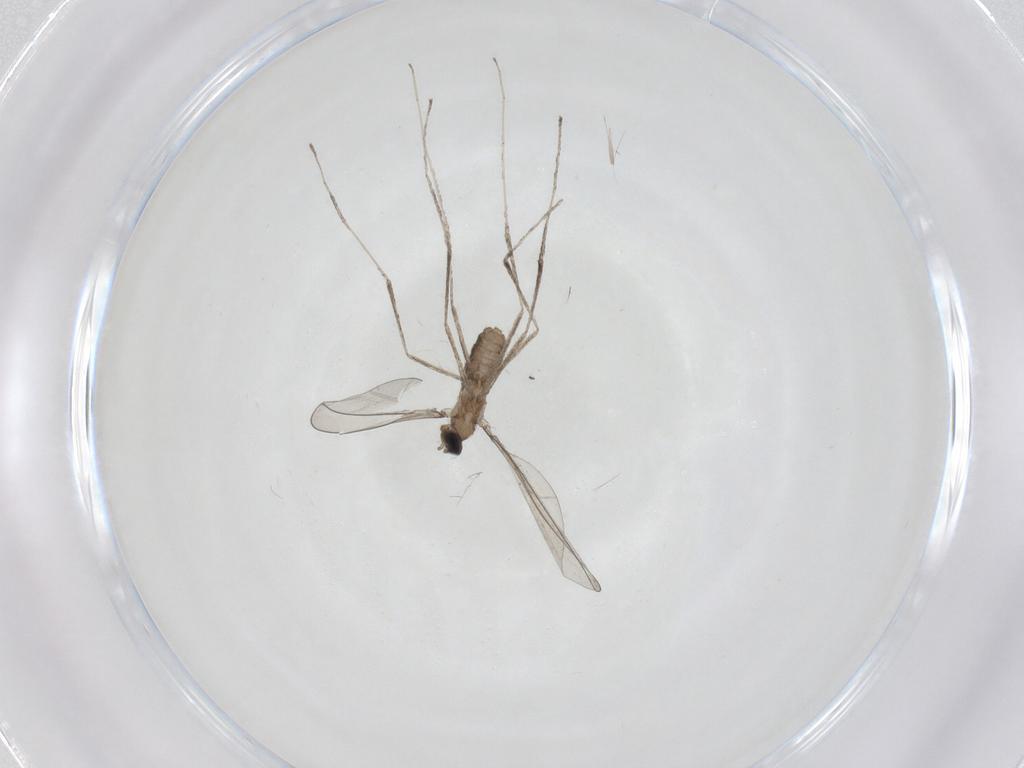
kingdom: Animalia
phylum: Arthropoda
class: Insecta
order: Diptera
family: Cecidomyiidae
